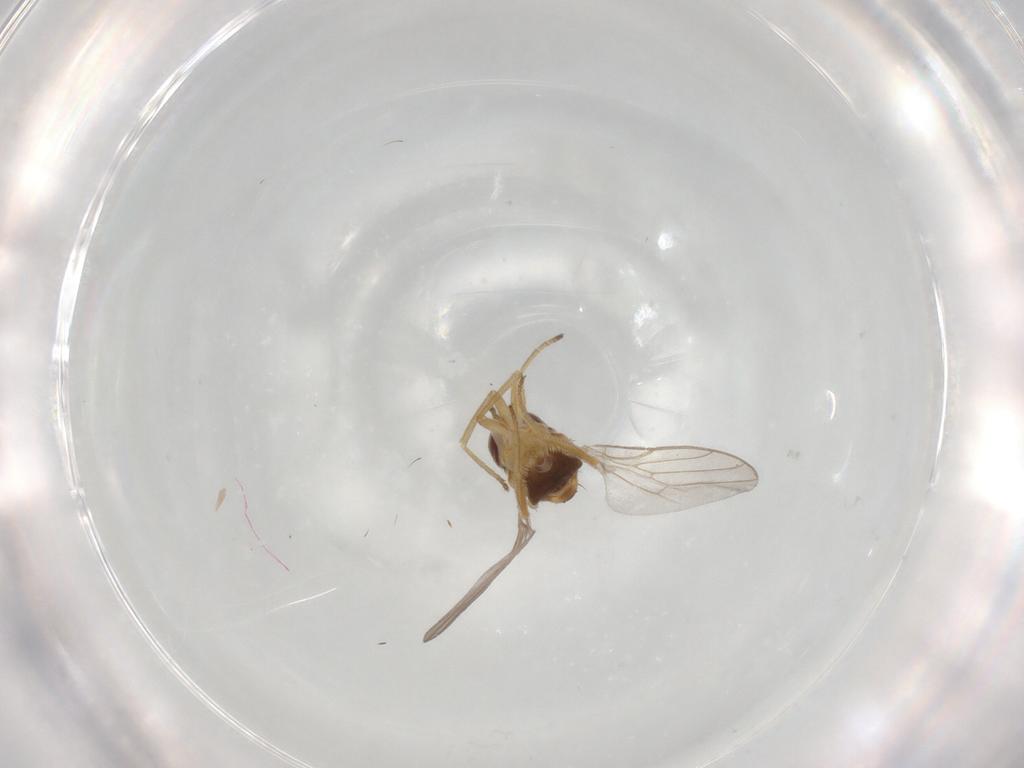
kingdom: Animalia
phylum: Arthropoda
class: Insecta
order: Diptera
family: Chloropidae
